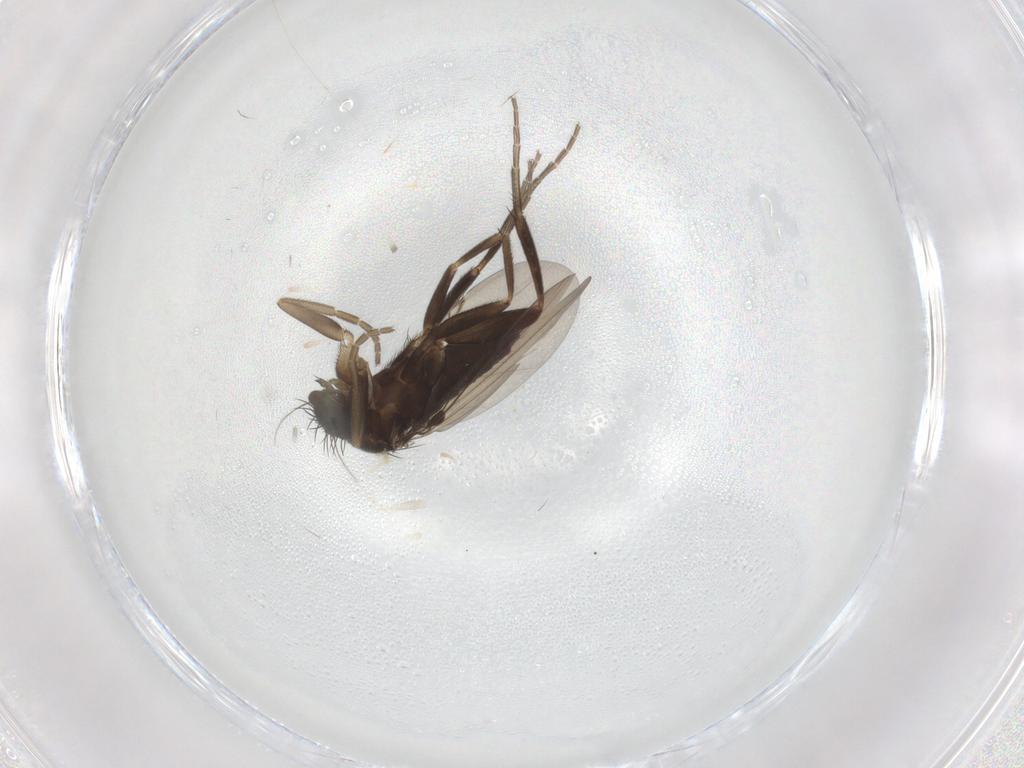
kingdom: Animalia
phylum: Arthropoda
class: Insecta
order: Diptera
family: Phoridae
